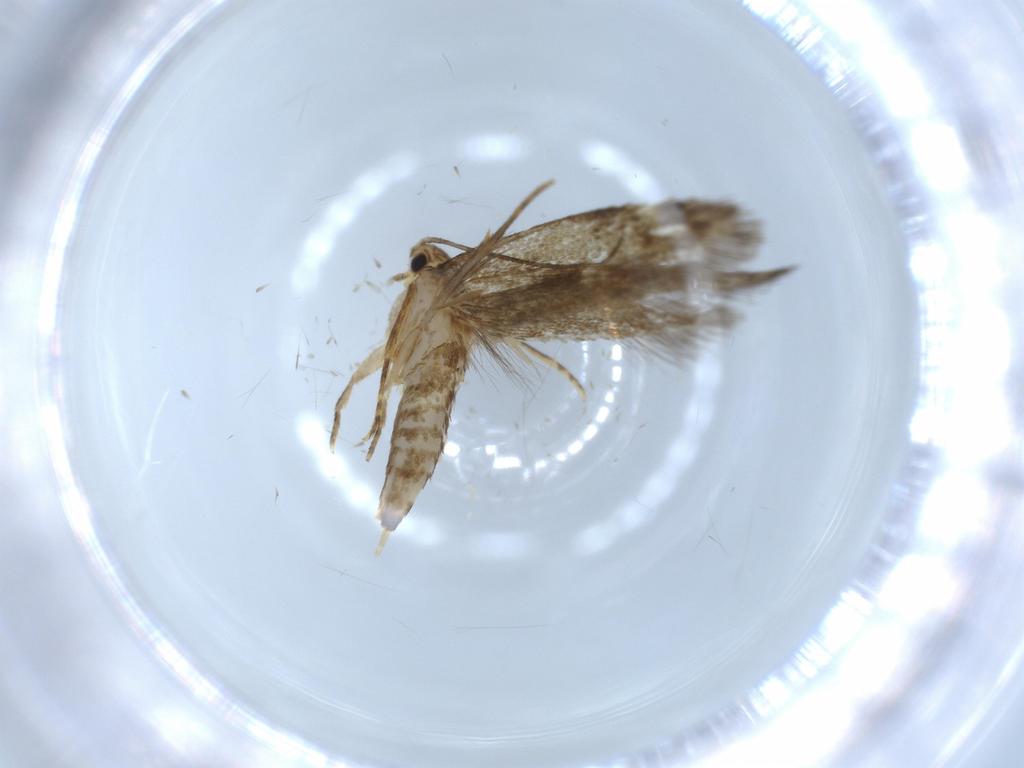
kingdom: Animalia
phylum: Arthropoda
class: Insecta
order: Lepidoptera
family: Tineidae
